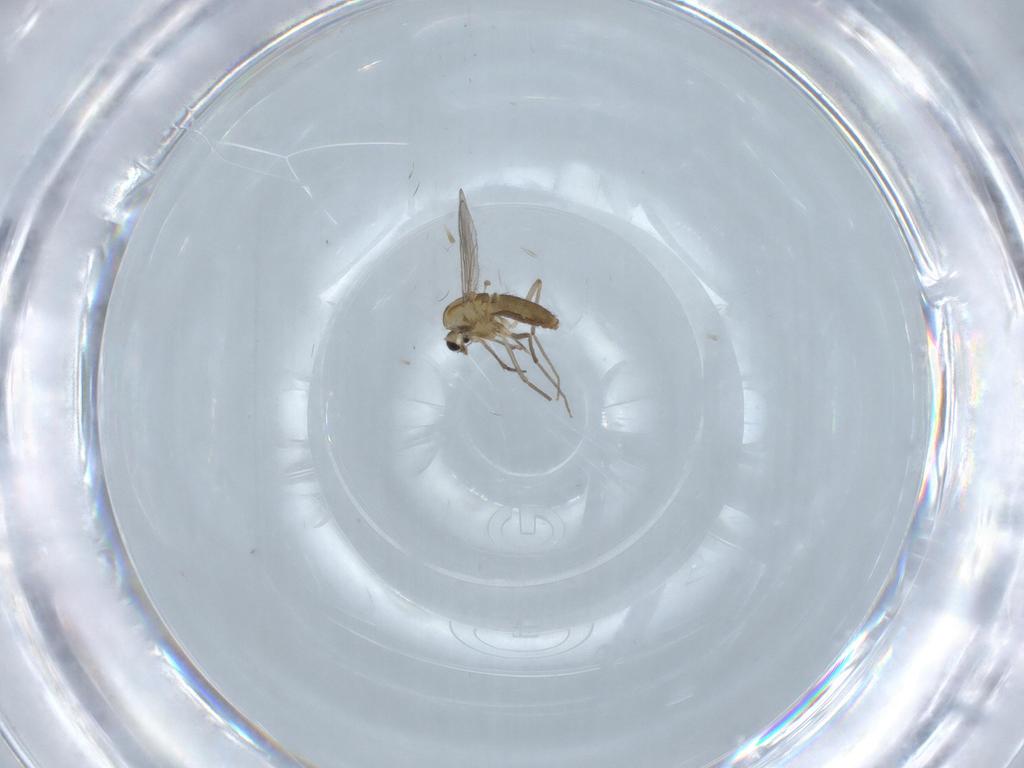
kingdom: Animalia
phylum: Arthropoda
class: Insecta
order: Diptera
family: Chironomidae
